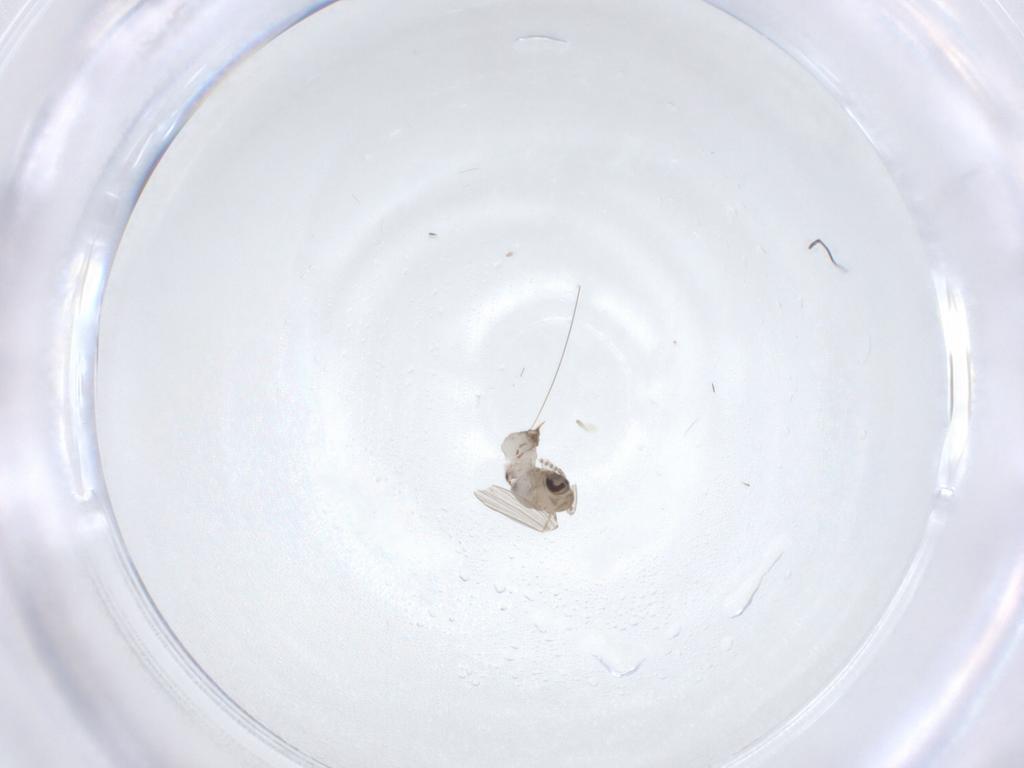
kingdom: Animalia
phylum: Arthropoda
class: Insecta
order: Diptera
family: Psychodidae
